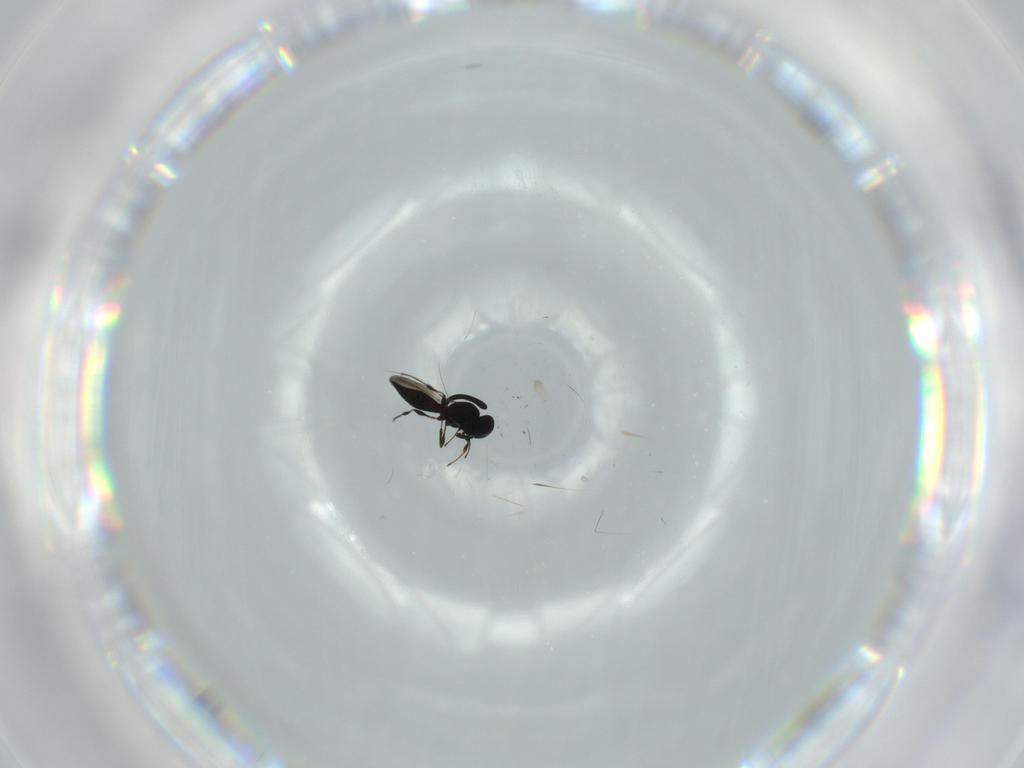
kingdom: Animalia
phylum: Arthropoda
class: Insecta
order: Hymenoptera
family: Platygastridae
